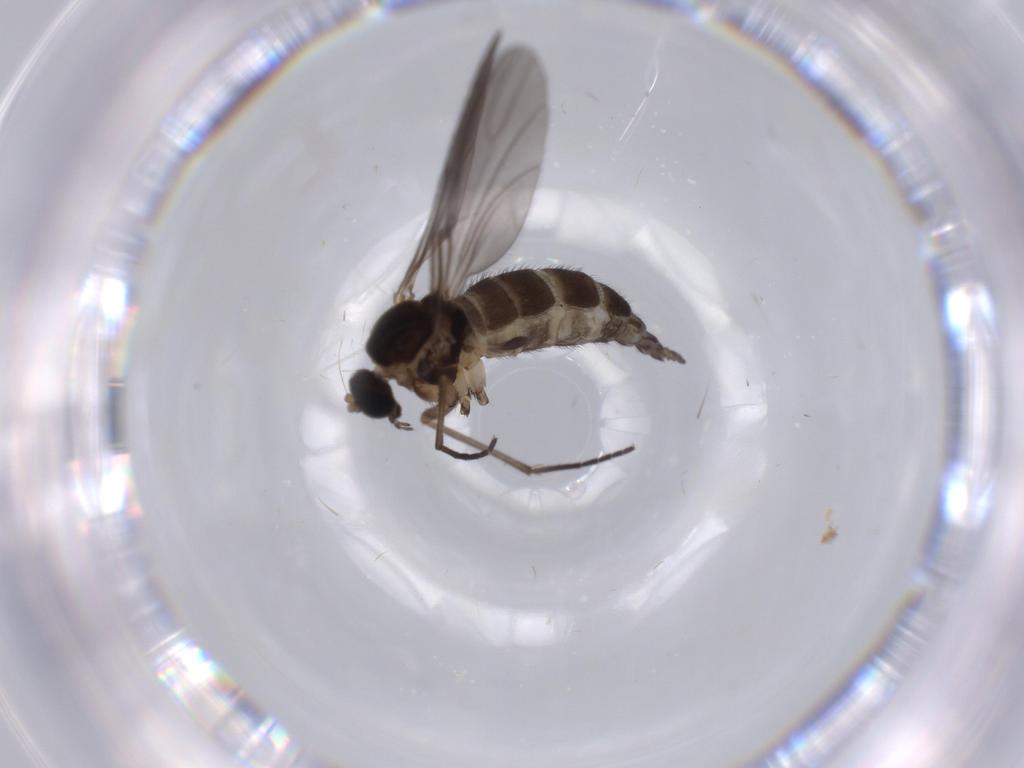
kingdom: Animalia
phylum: Arthropoda
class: Insecta
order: Diptera
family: Sciaridae
